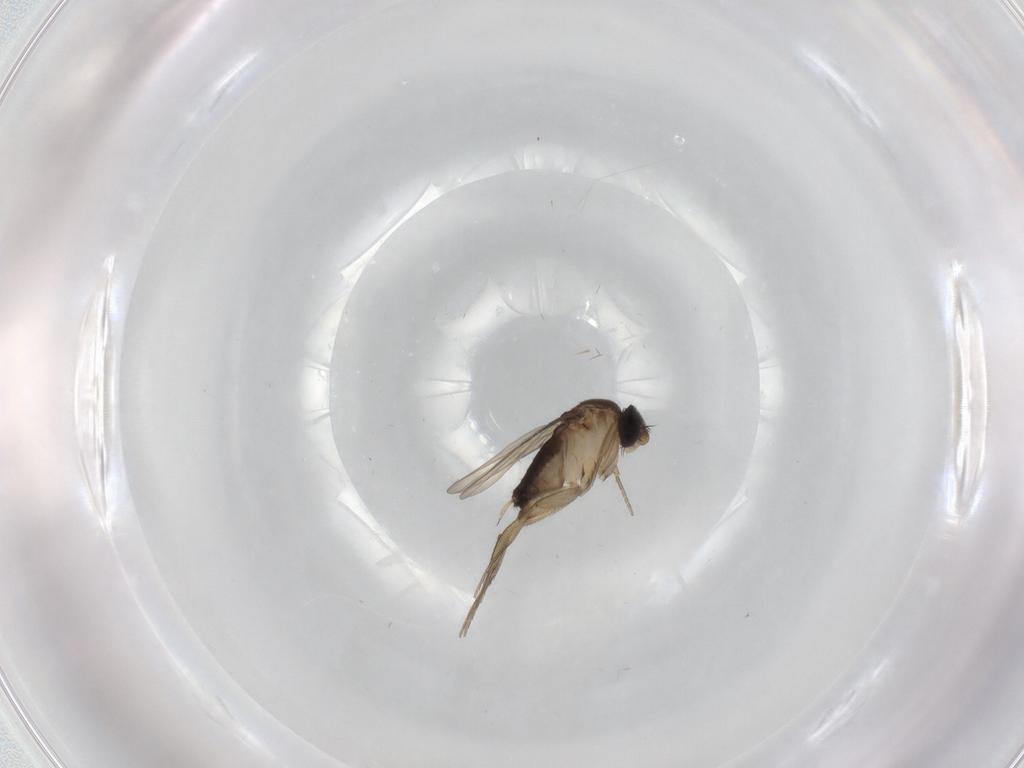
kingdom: Animalia
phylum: Arthropoda
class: Insecta
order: Diptera
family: Phoridae
